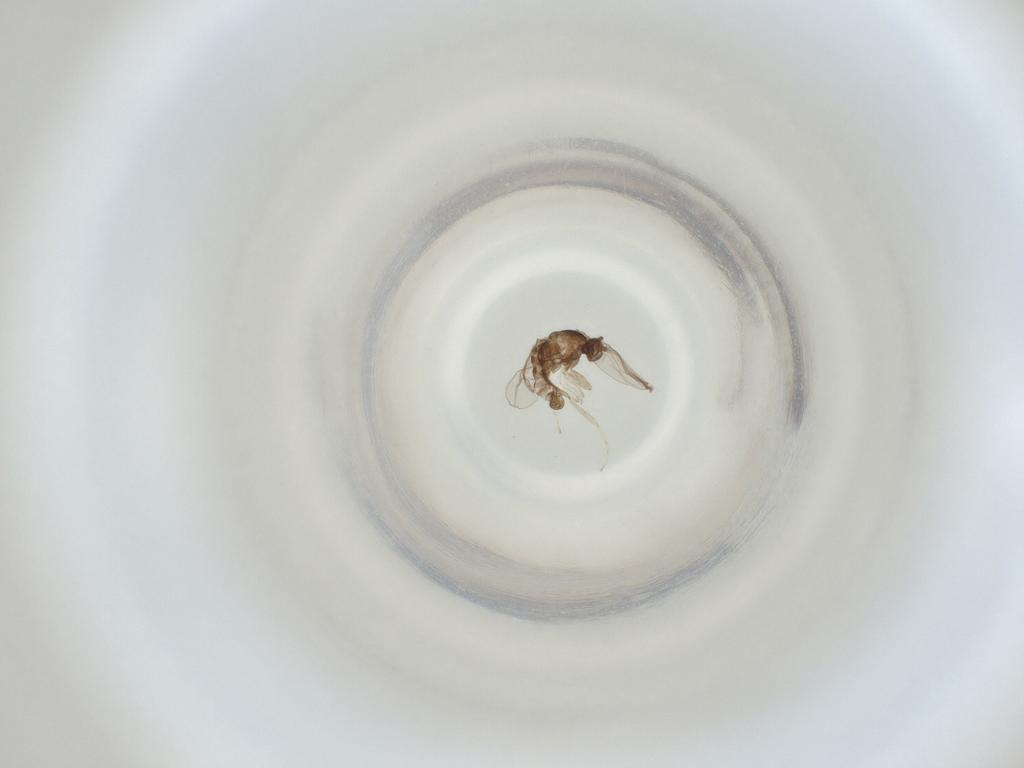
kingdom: Animalia
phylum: Arthropoda
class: Insecta
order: Diptera
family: Cecidomyiidae
